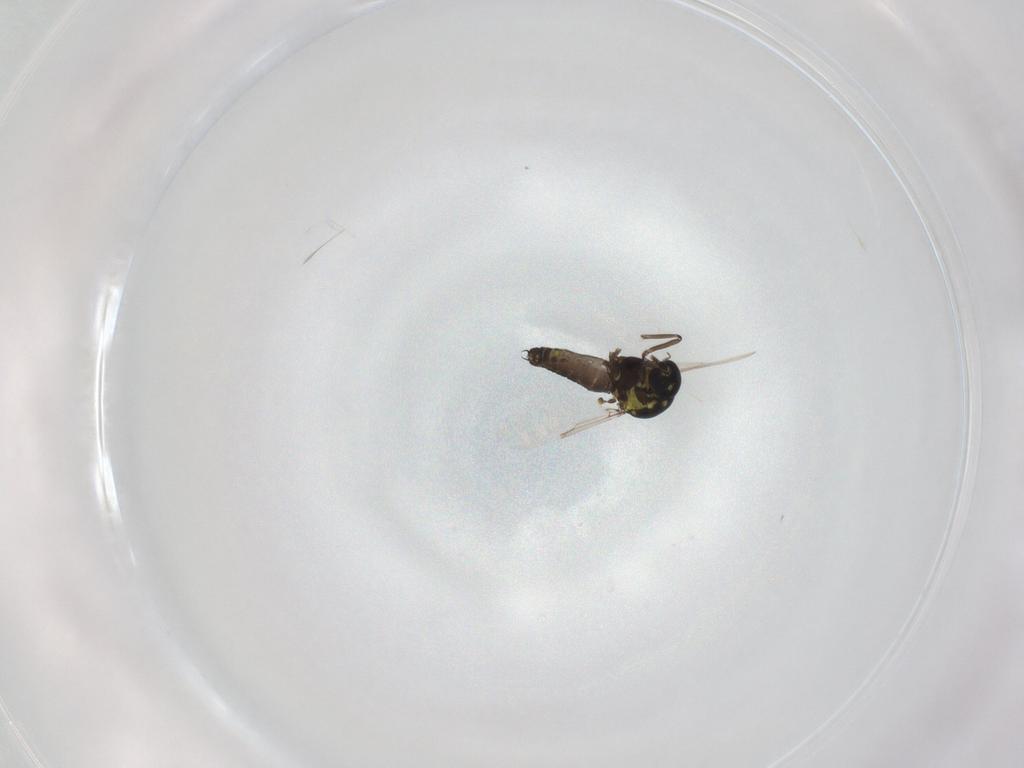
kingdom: Animalia
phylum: Arthropoda
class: Insecta
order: Diptera
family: Ceratopogonidae
